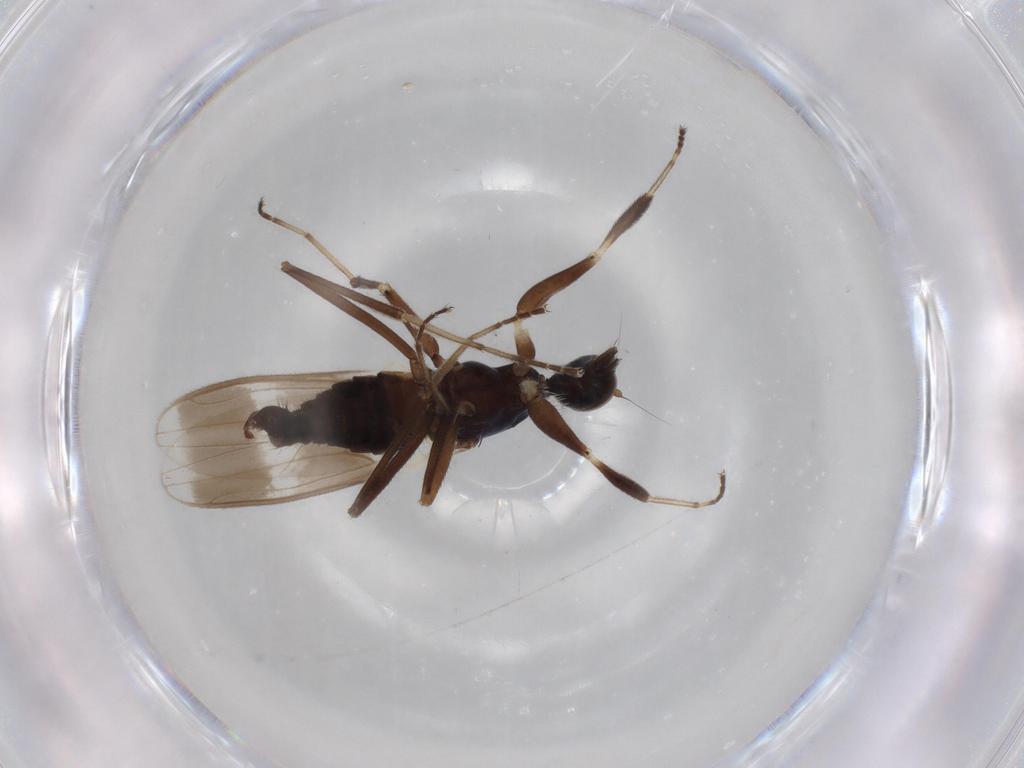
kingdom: Animalia
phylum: Arthropoda
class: Insecta
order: Diptera
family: Hybotidae
